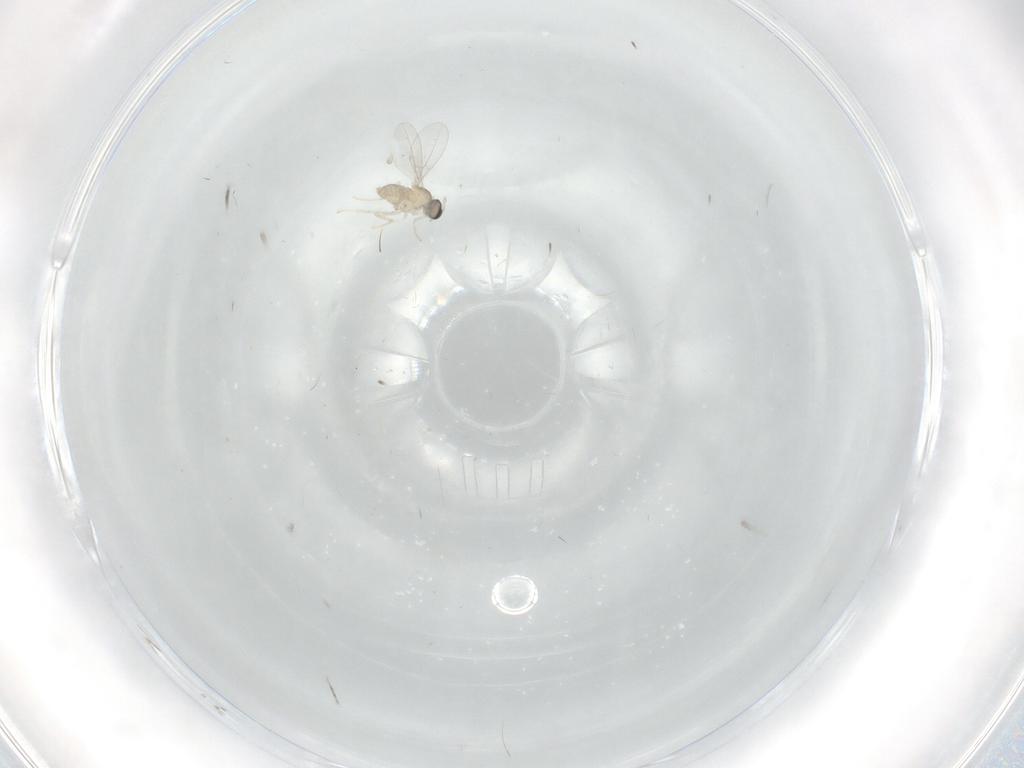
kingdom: Animalia
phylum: Arthropoda
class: Insecta
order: Diptera
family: Cecidomyiidae
